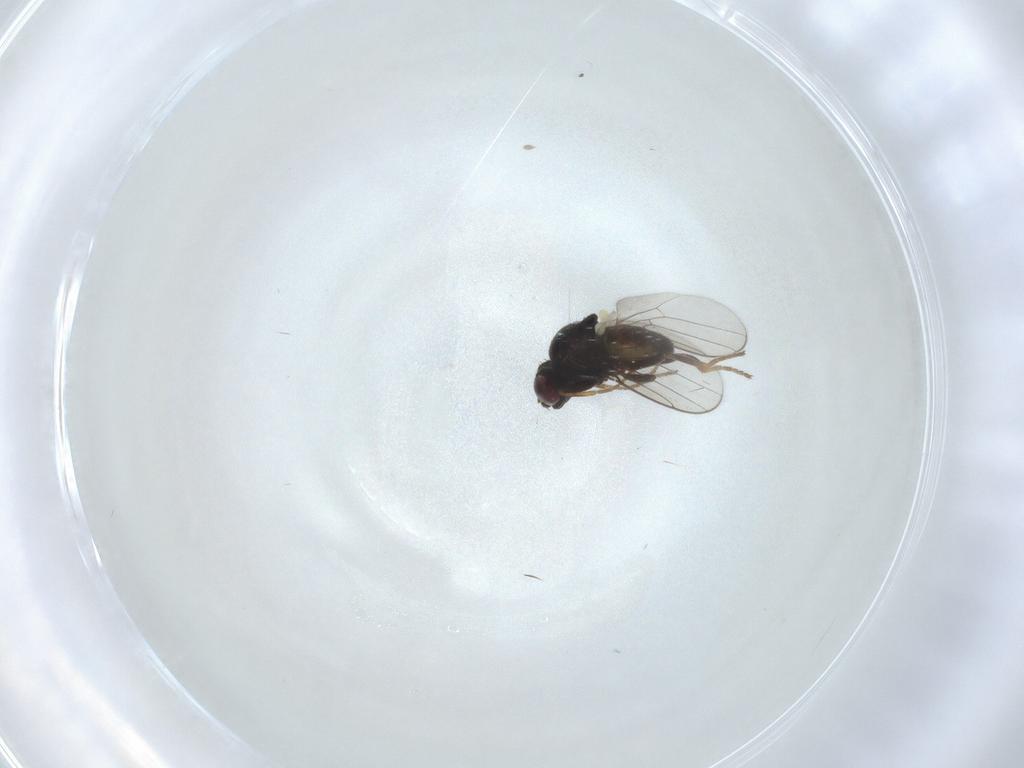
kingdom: Animalia
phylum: Arthropoda
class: Insecta
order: Diptera
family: Chloropidae
